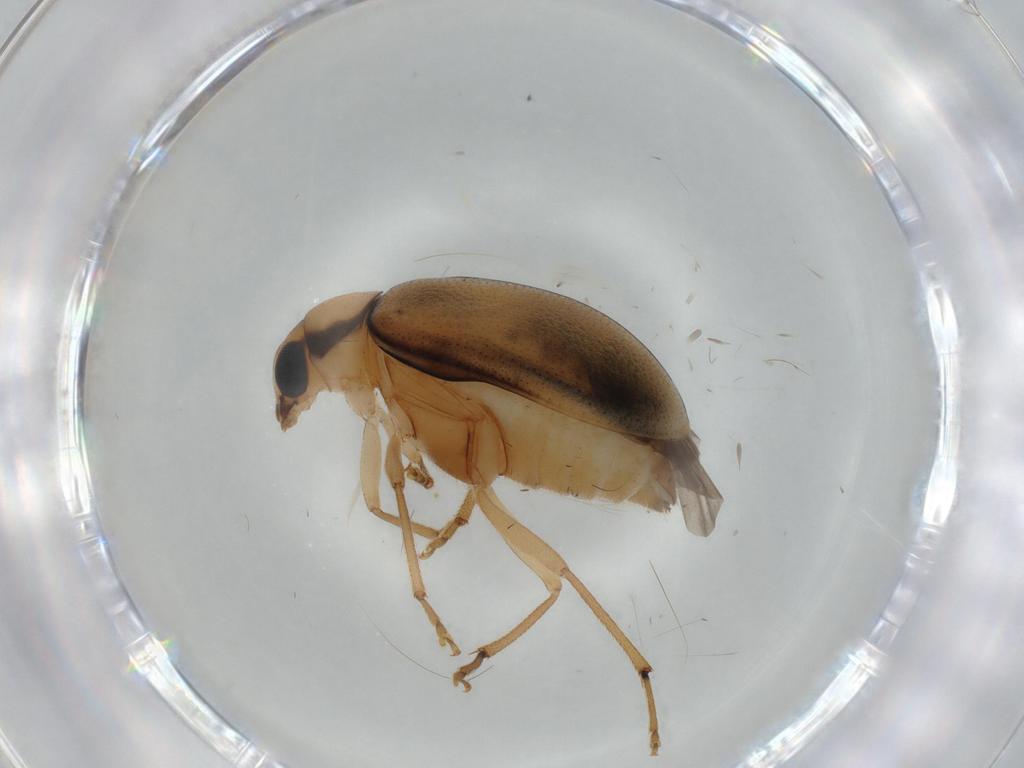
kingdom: Animalia
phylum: Arthropoda
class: Insecta
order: Coleoptera
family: Chrysomelidae
